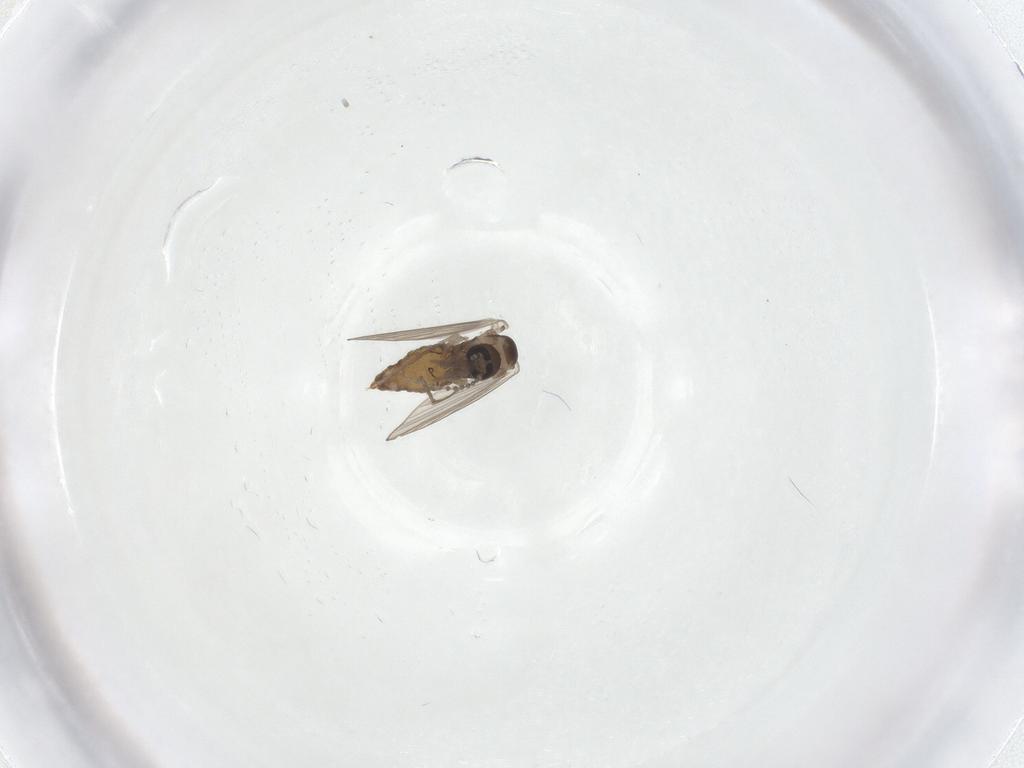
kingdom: Animalia
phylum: Arthropoda
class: Insecta
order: Diptera
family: Psychodidae
